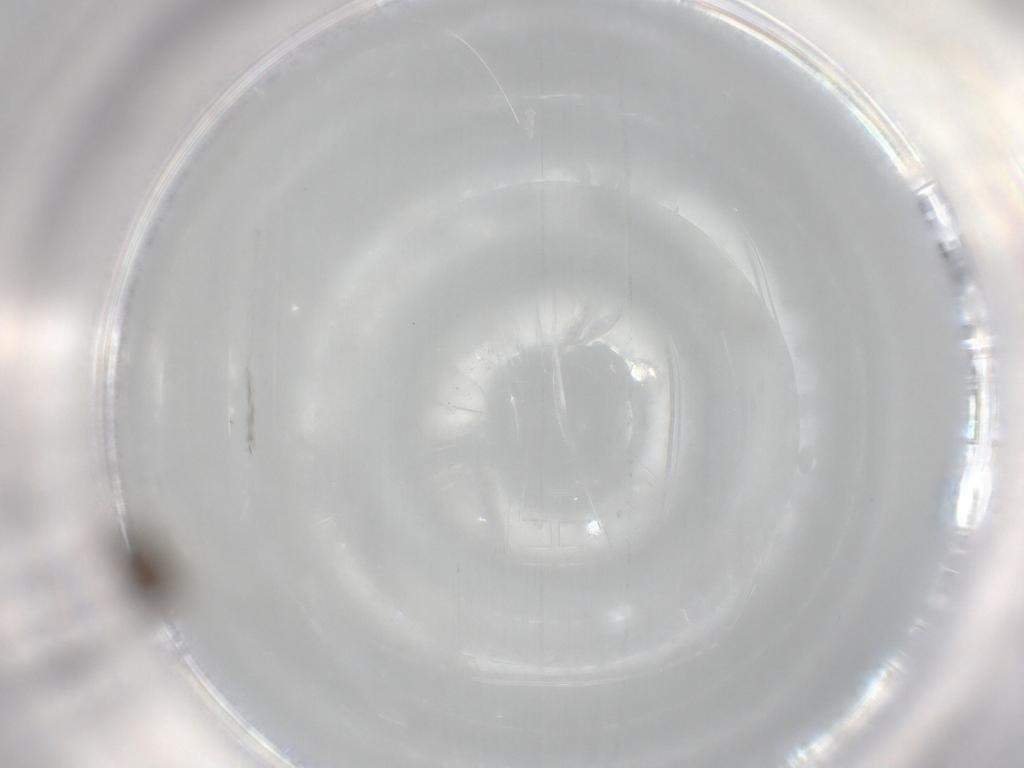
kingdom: Animalia
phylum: Arthropoda
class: Insecta
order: Diptera
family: Chironomidae
